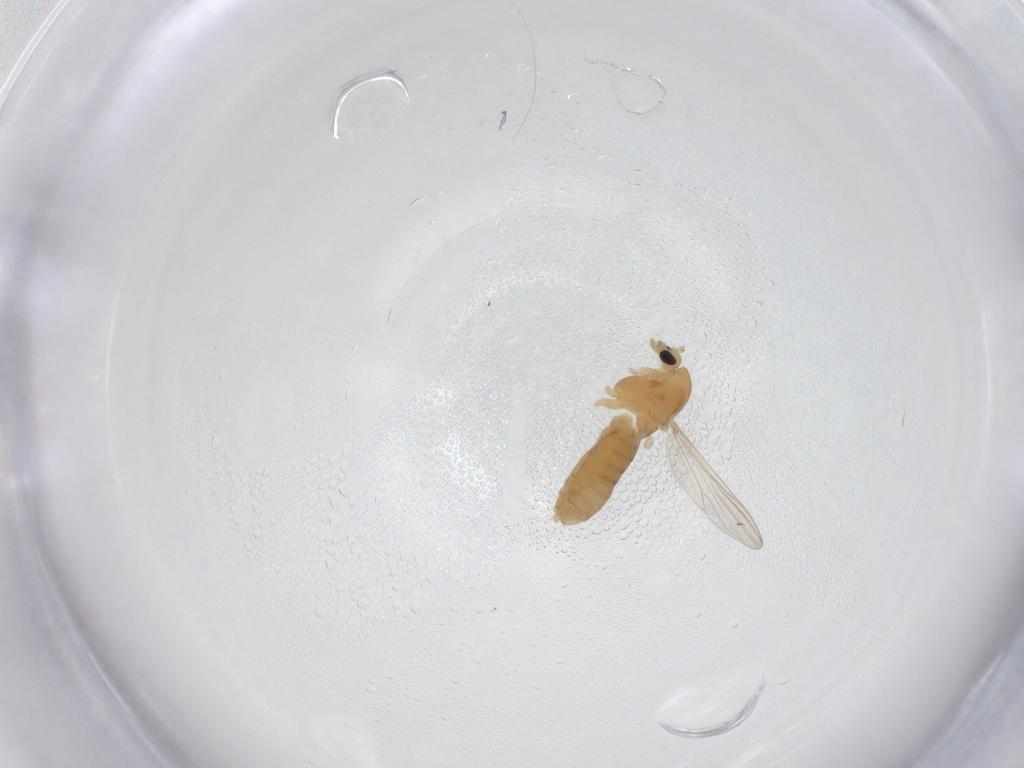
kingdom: Animalia
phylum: Arthropoda
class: Insecta
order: Diptera
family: Chironomidae
